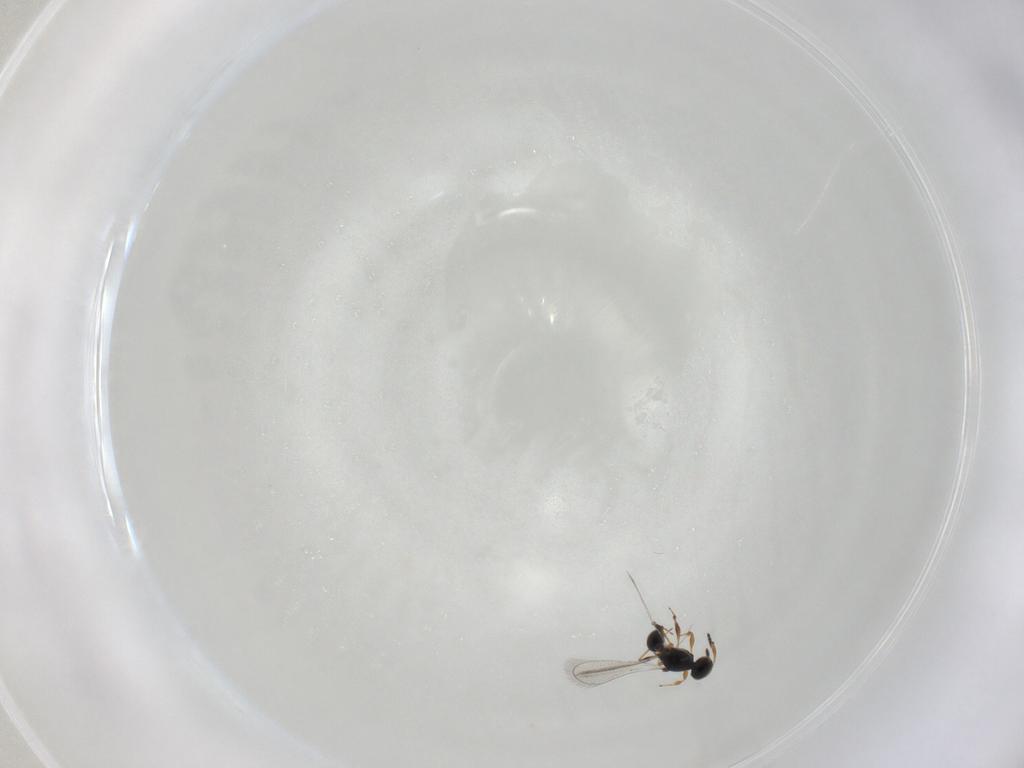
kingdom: Animalia
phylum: Arthropoda
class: Insecta
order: Hymenoptera
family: Platygastridae
